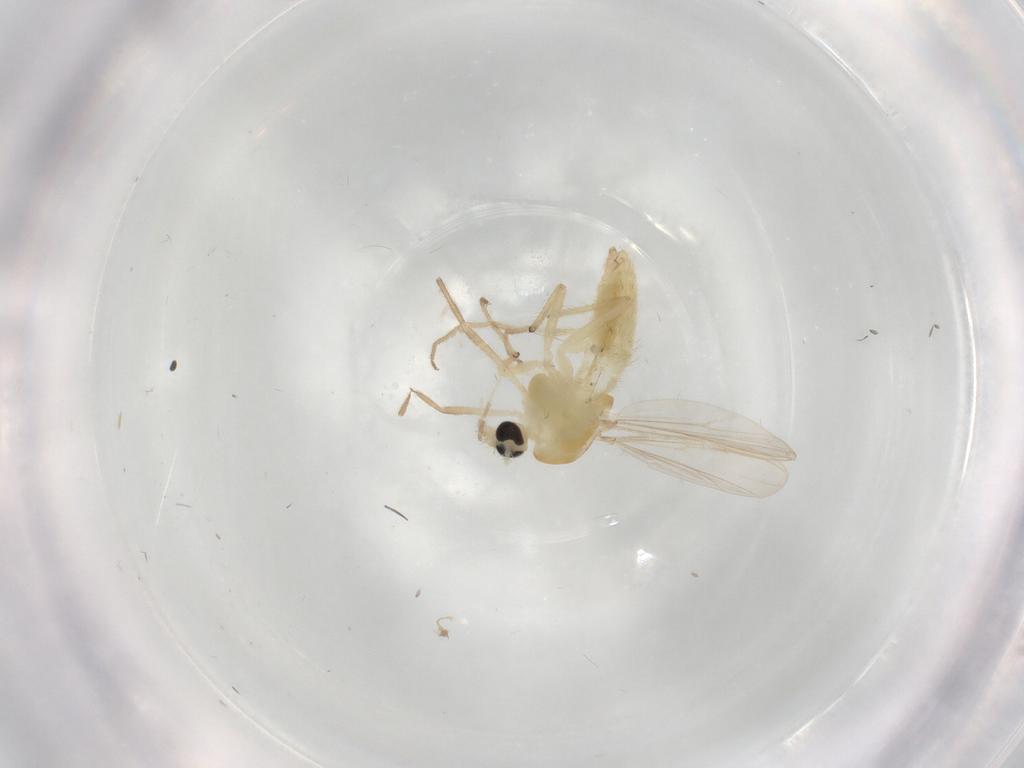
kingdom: Animalia
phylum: Arthropoda
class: Insecta
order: Diptera
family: Chironomidae
